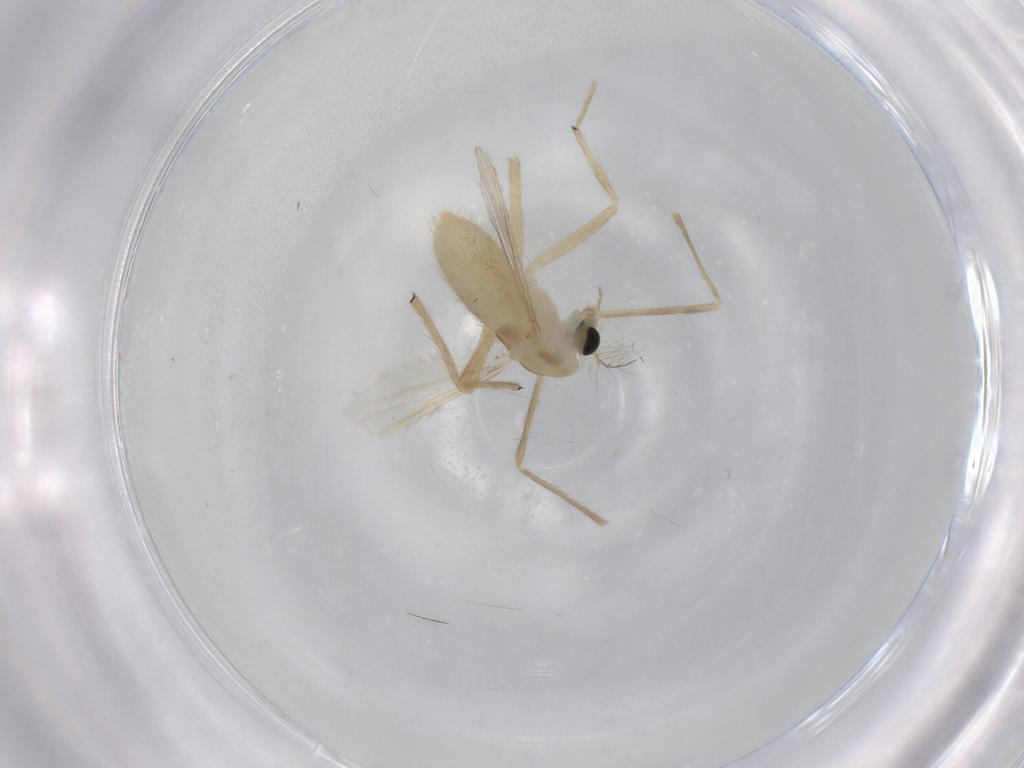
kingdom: Animalia
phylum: Arthropoda
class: Insecta
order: Diptera
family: Chironomidae
